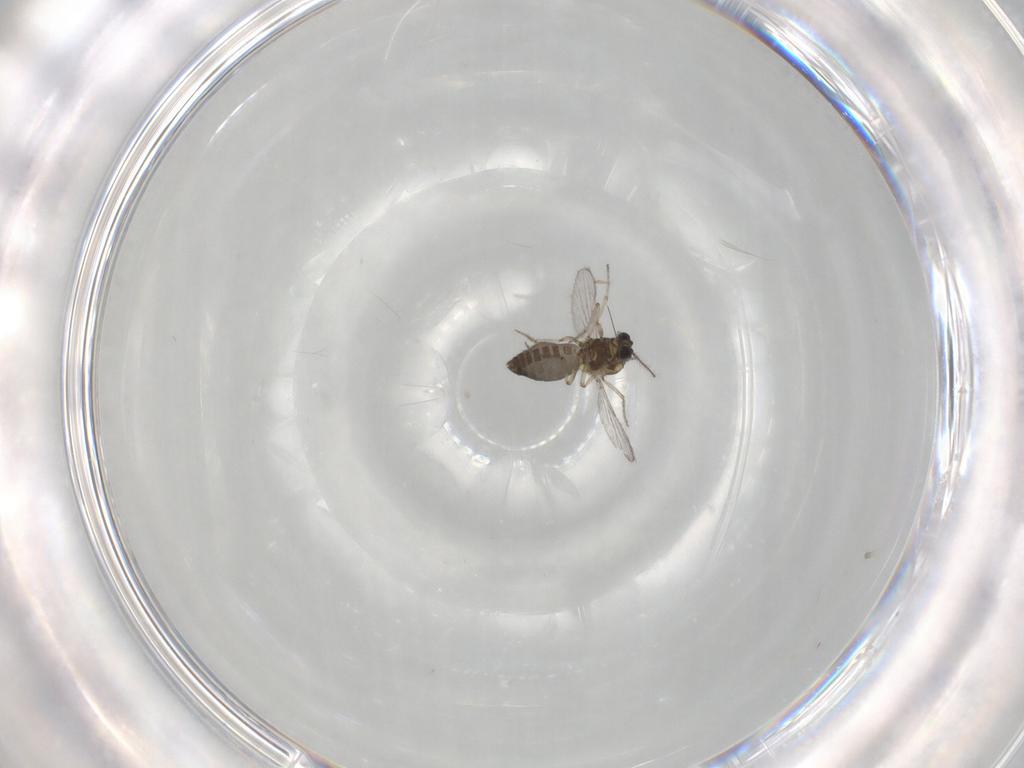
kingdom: Animalia
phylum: Arthropoda
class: Insecta
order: Diptera
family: Ceratopogonidae
